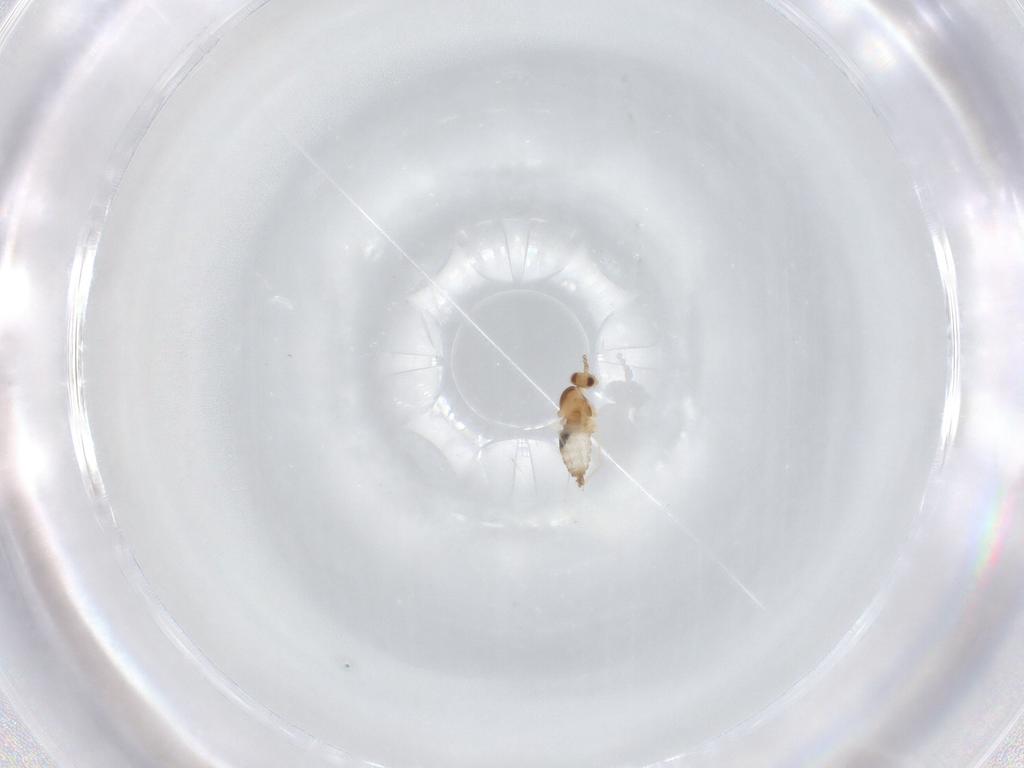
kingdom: Animalia
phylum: Arthropoda
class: Insecta
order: Diptera
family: Cecidomyiidae
